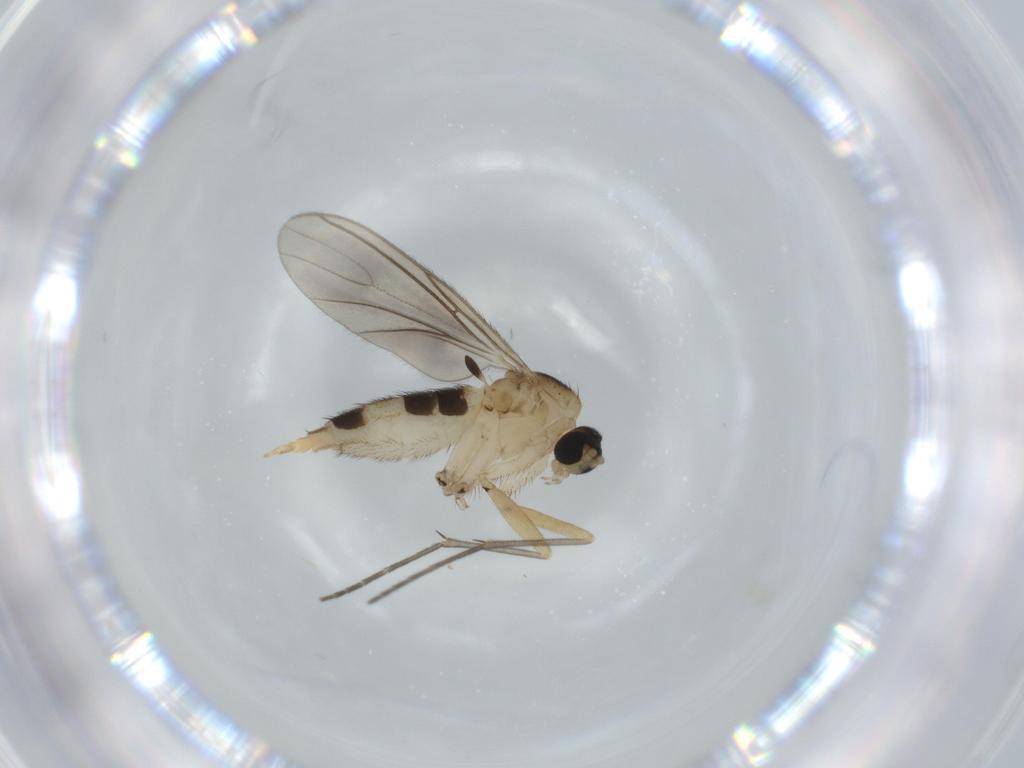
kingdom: Animalia
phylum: Arthropoda
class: Insecta
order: Diptera
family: Sciaridae
